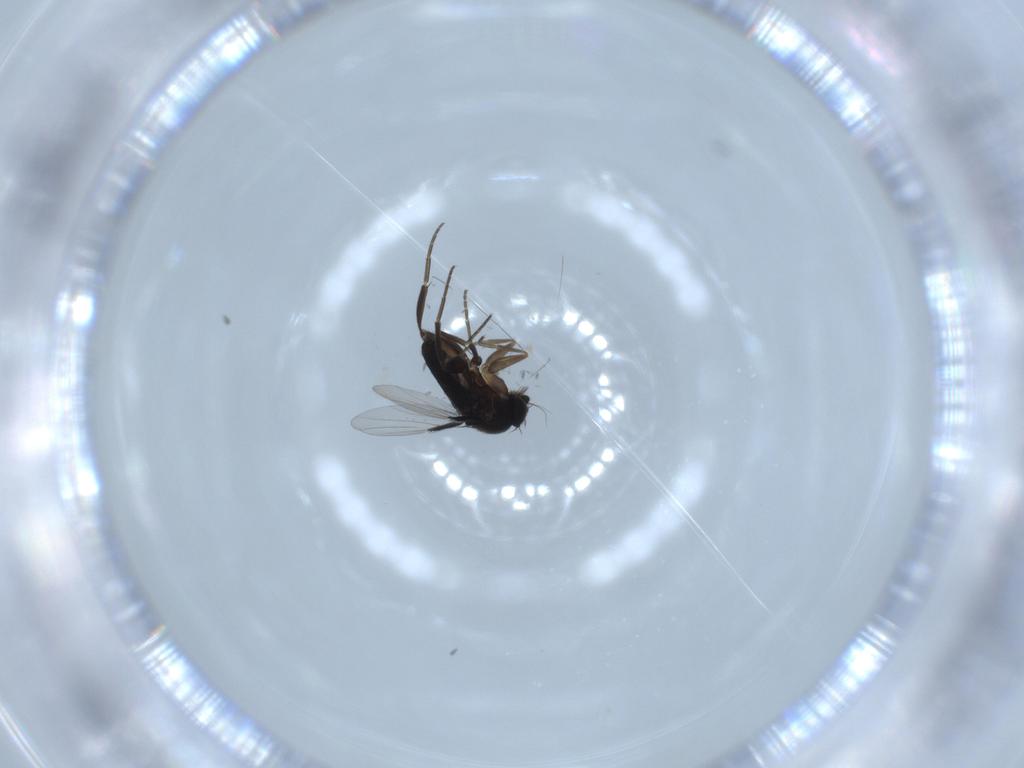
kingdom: Animalia
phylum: Arthropoda
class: Insecta
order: Diptera
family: Phoridae
